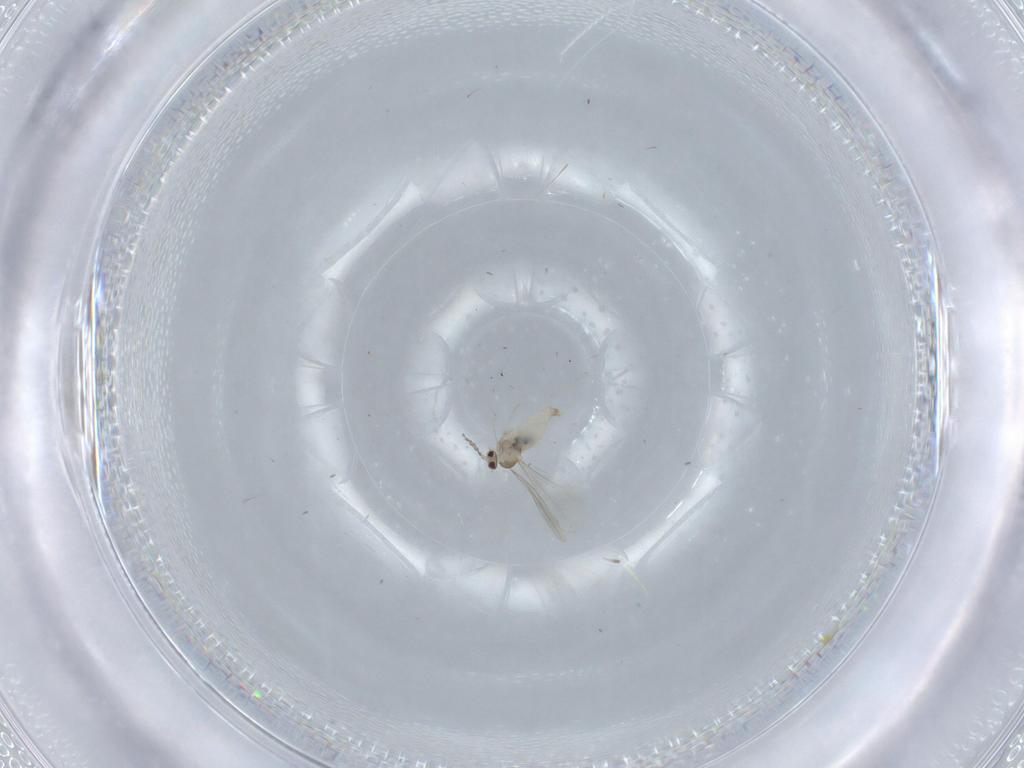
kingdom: Animalia
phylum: Arthropoda
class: Insecta
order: Diptera
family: Cecidomyiidae
